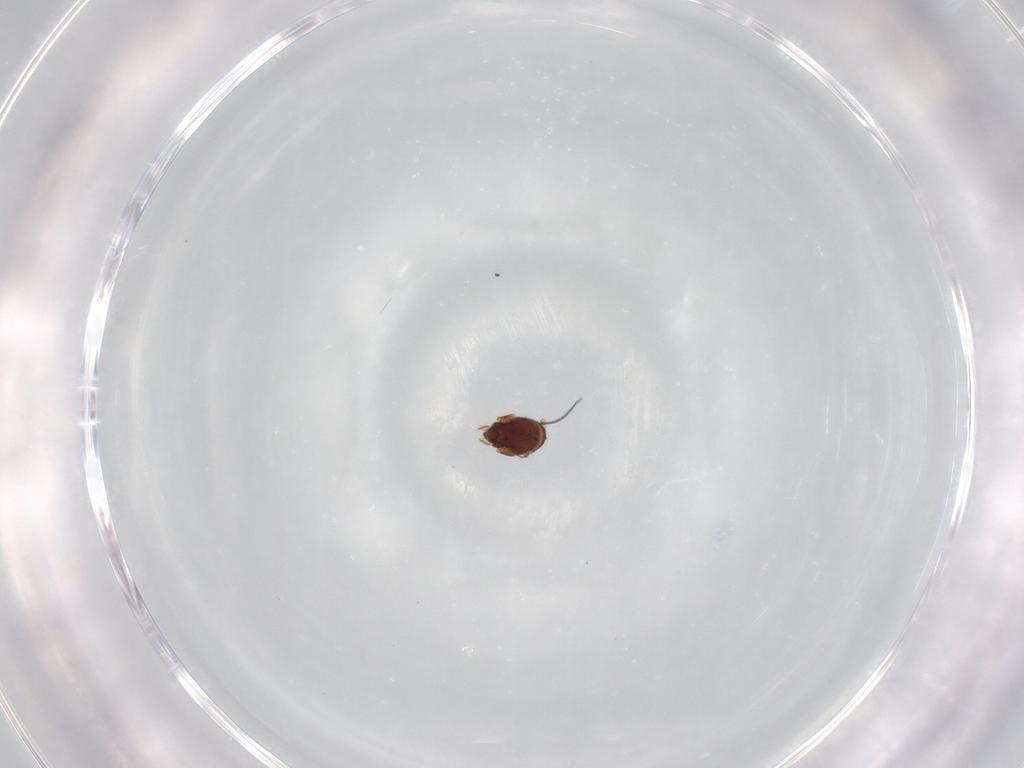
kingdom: Animalia
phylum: Arthropoda
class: Arachnida
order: Sarcoptiformes
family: Phenopelopidae
